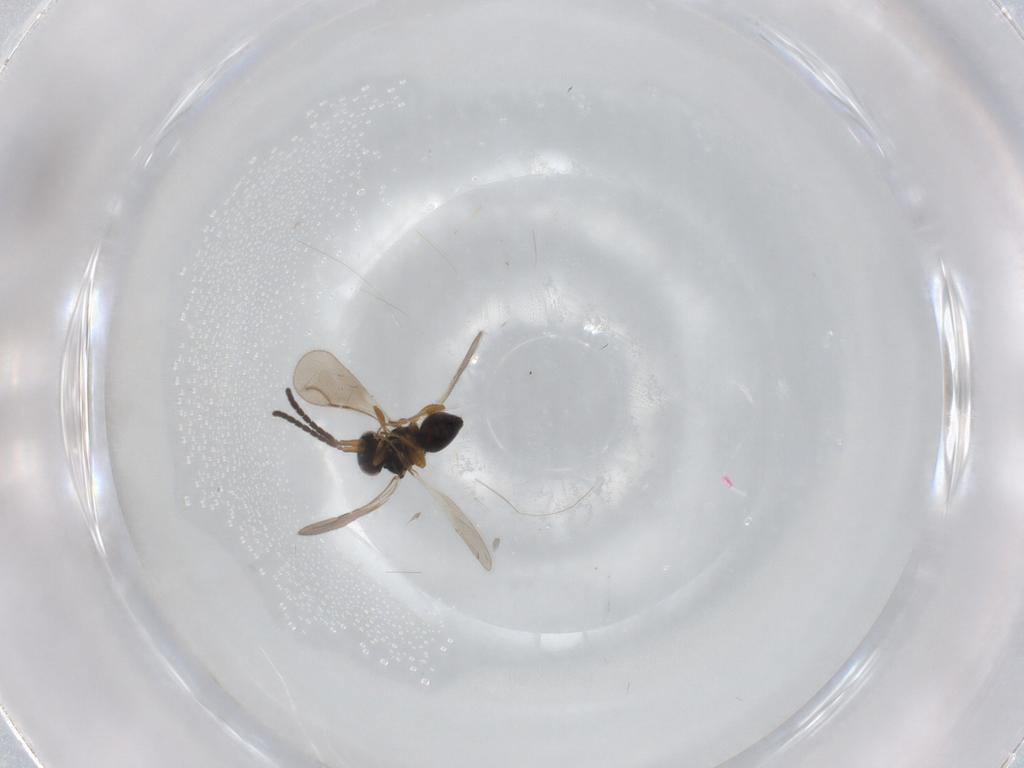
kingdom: Animalia
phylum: Arthropoda
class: Insecta
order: Hymenoptera
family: Ceraphronidae
